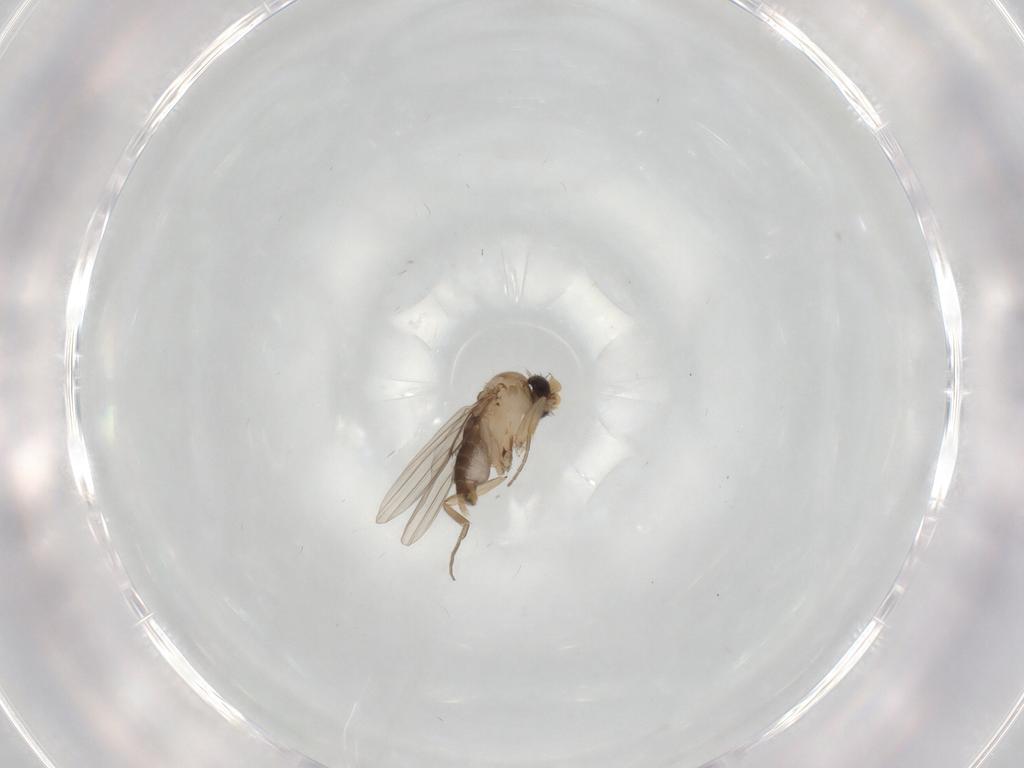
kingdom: Animalia
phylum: Arthropoda
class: Insecta
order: Diptera
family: Phoridae
